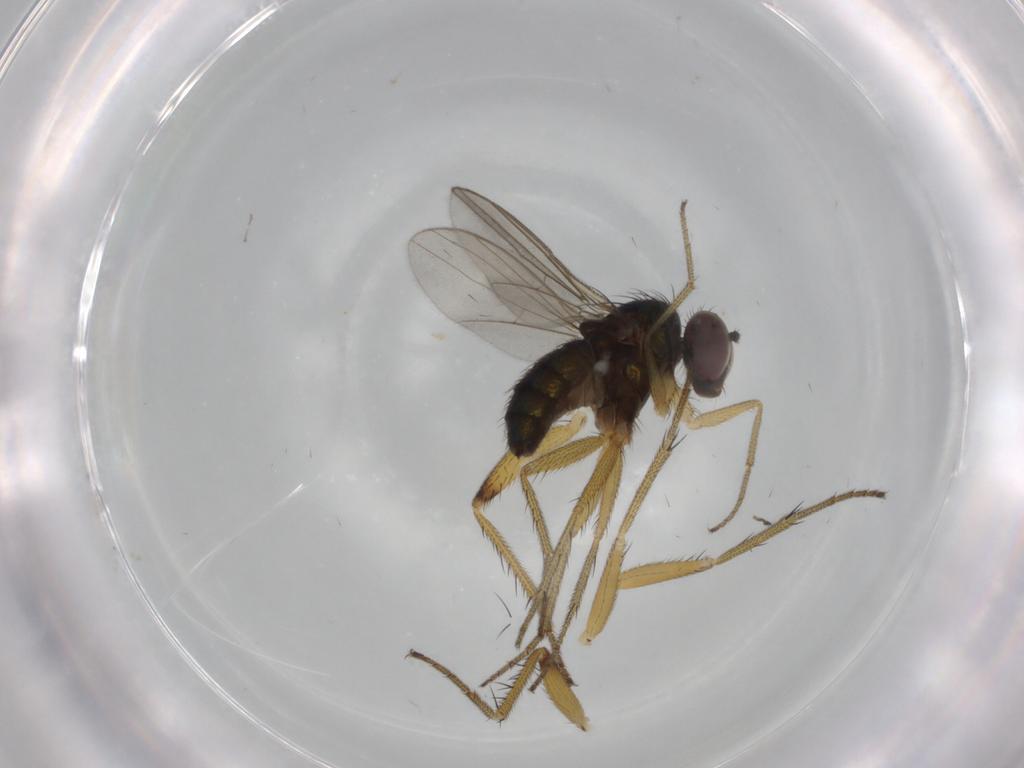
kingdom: Animalia
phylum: Arthropoda
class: Insecta
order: Diptera
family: Dolichopodidae
